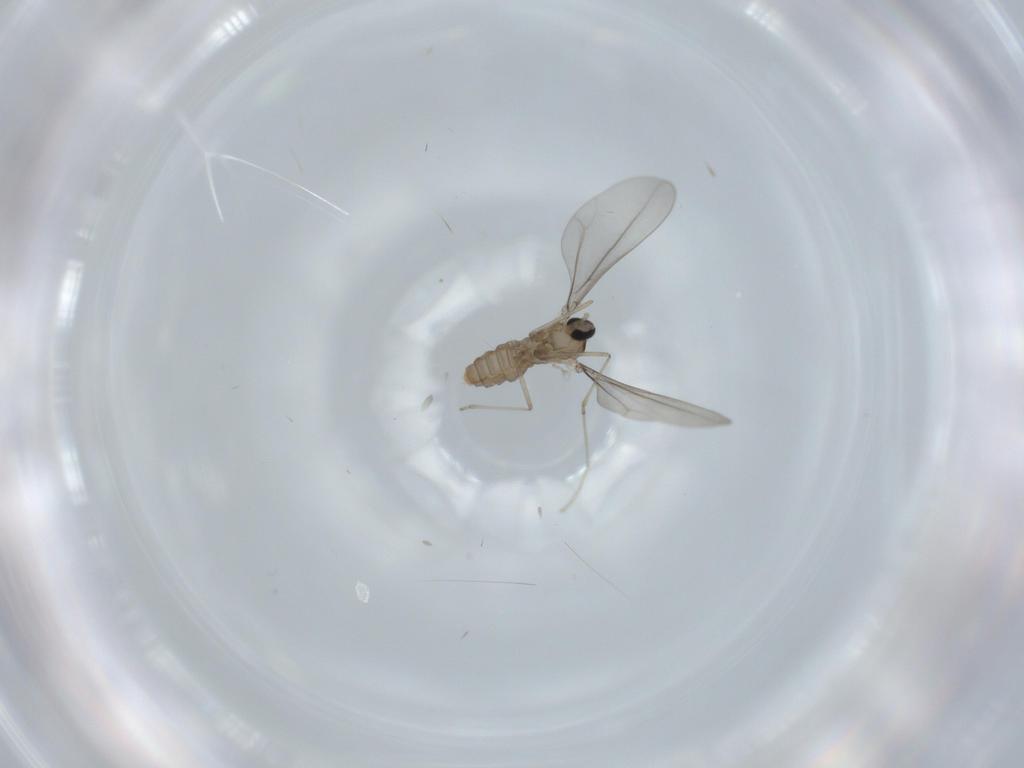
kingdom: Animalia
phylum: Arthropoda
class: Insecta
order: Diptera
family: Cecidomyiidae
